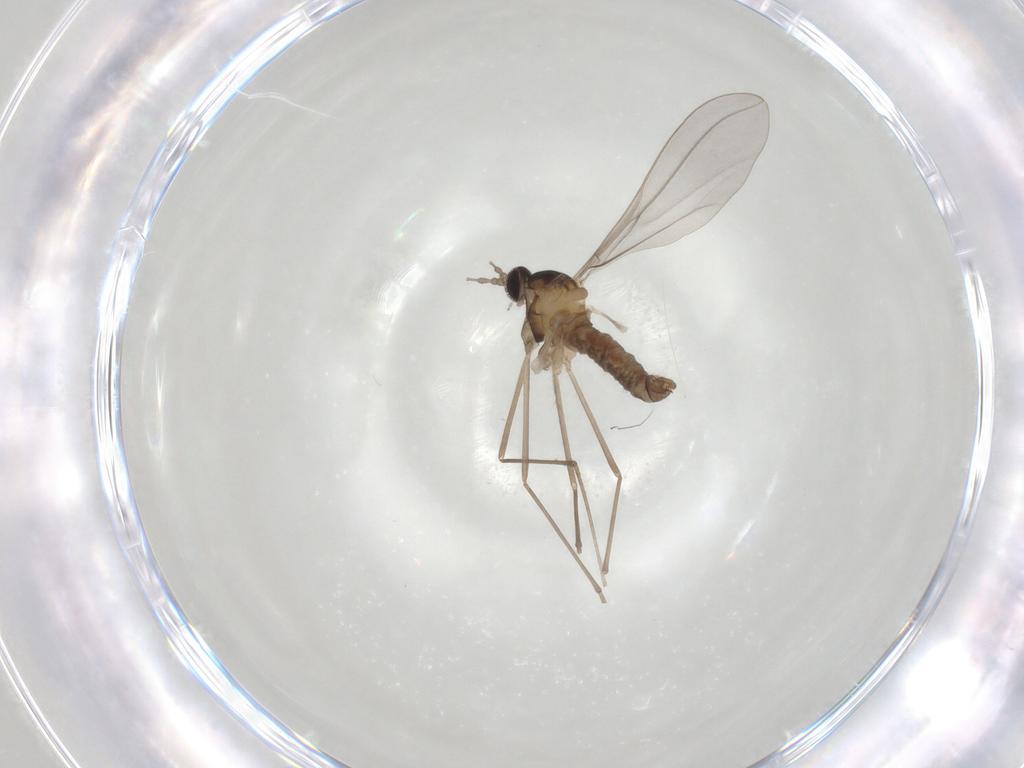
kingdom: Animalia
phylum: Arthropoda
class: Insecta
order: Diptera
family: Cecidomyiidae
